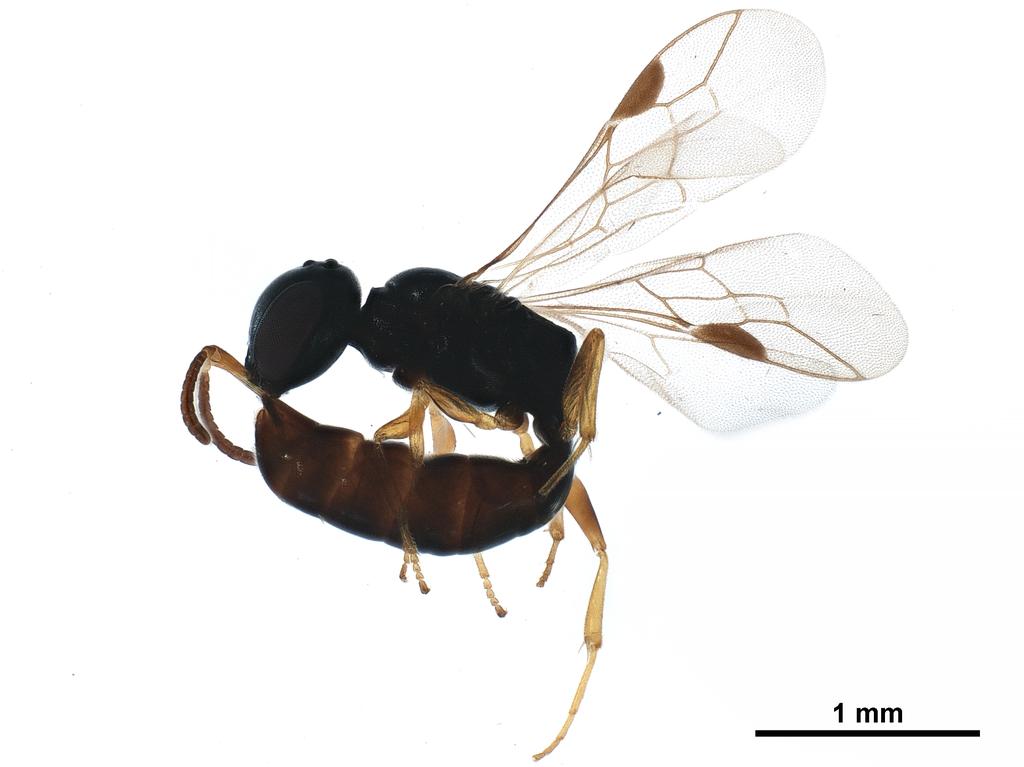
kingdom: Animalia
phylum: Arthropoda
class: Insecta
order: Hymenoptera
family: Pemphredonidae
